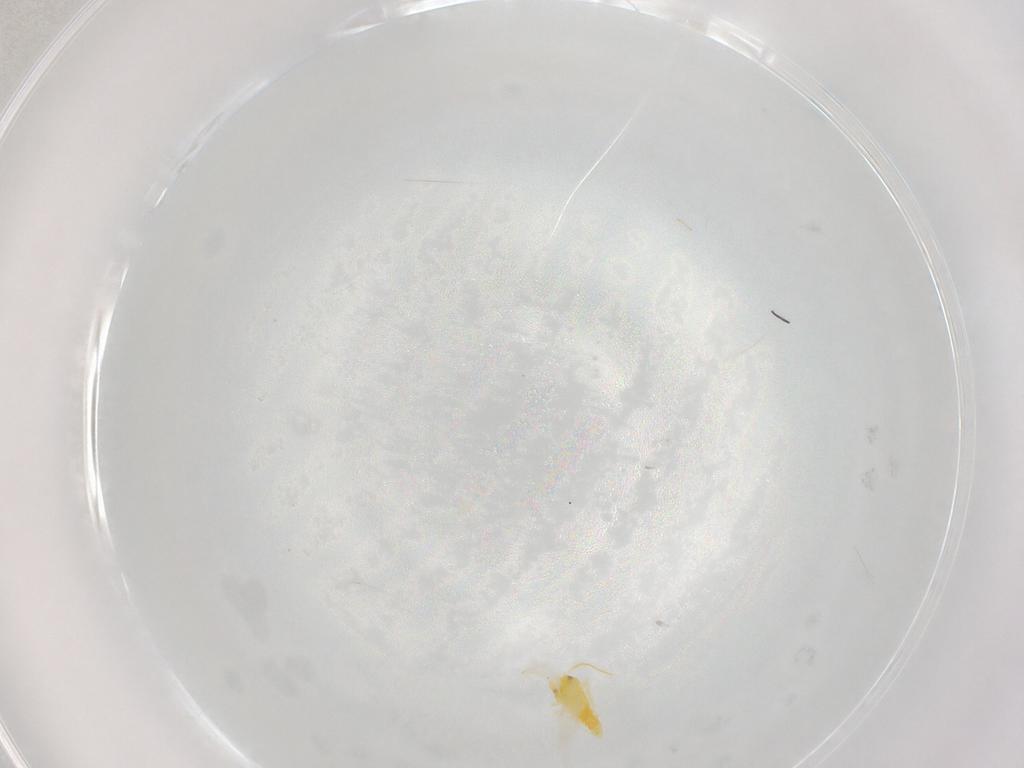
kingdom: Animalia
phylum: Arthropoda
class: Insecta
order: Hemiptera
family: Aleyrodidae
